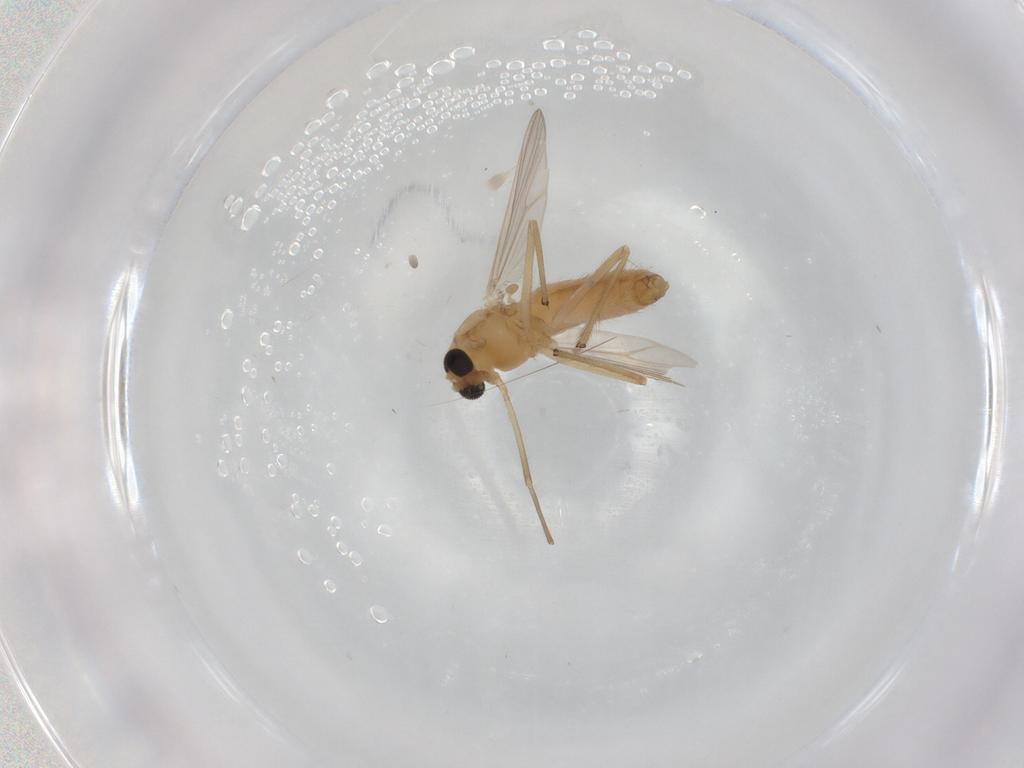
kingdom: Animalia
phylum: Arthropoda
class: Insecta
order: Diptera
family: Chironomidae
